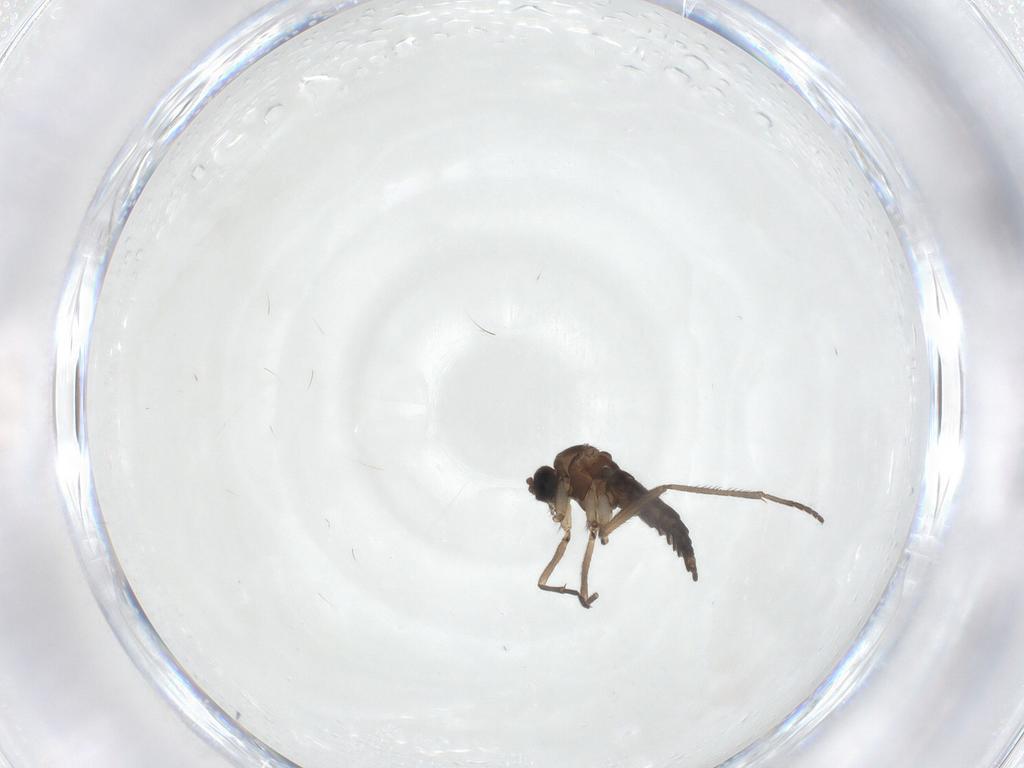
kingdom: Animalia
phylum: Arthropoda
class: Insecta
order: Diptera
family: Sciaridae
